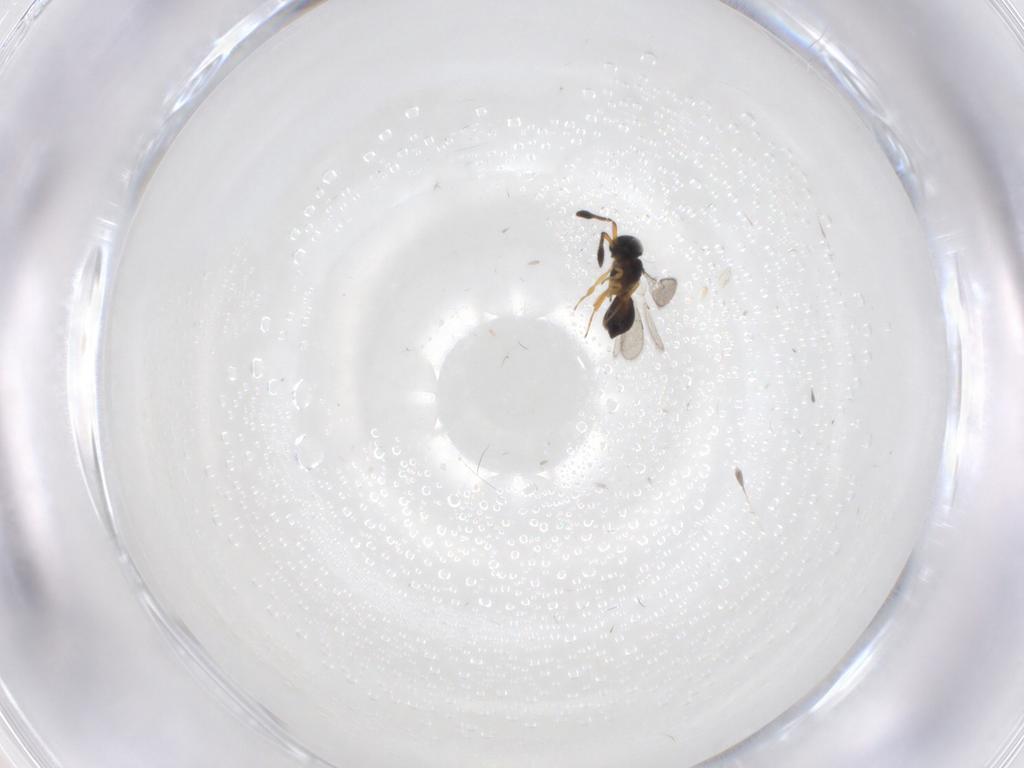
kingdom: Animalia
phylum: Arthropoda
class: Insecta
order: Hymenoptera
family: Scelionidae
